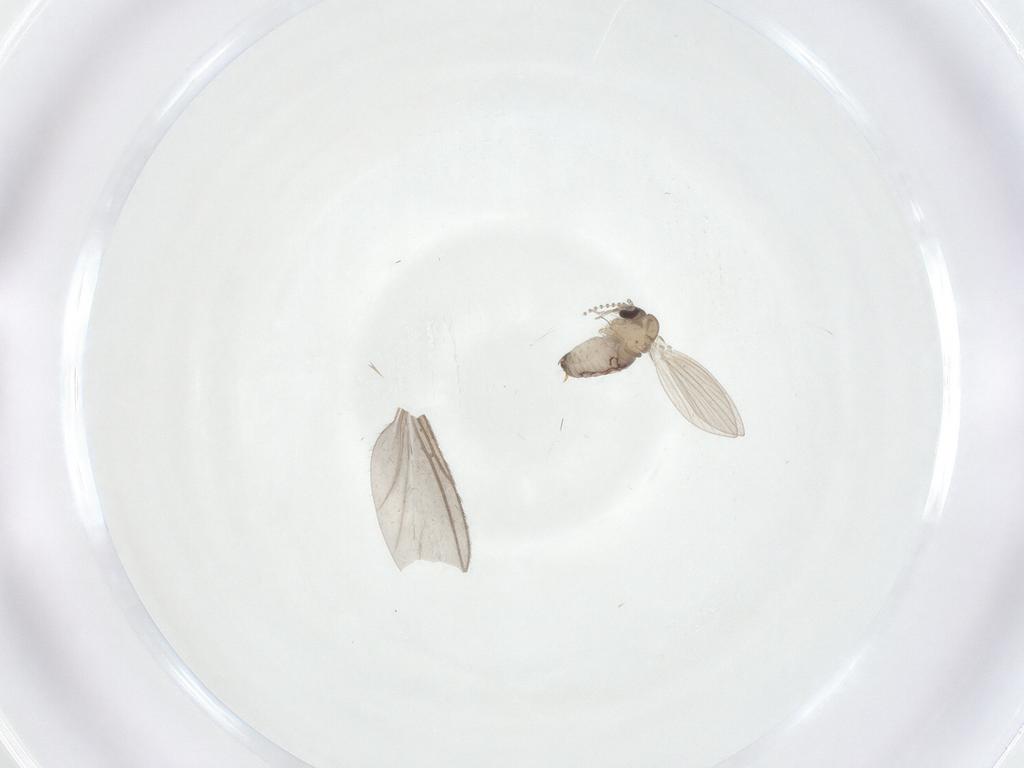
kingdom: Animalia
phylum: Arthropoda
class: Insecta
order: Diptera
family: Psychodidae
